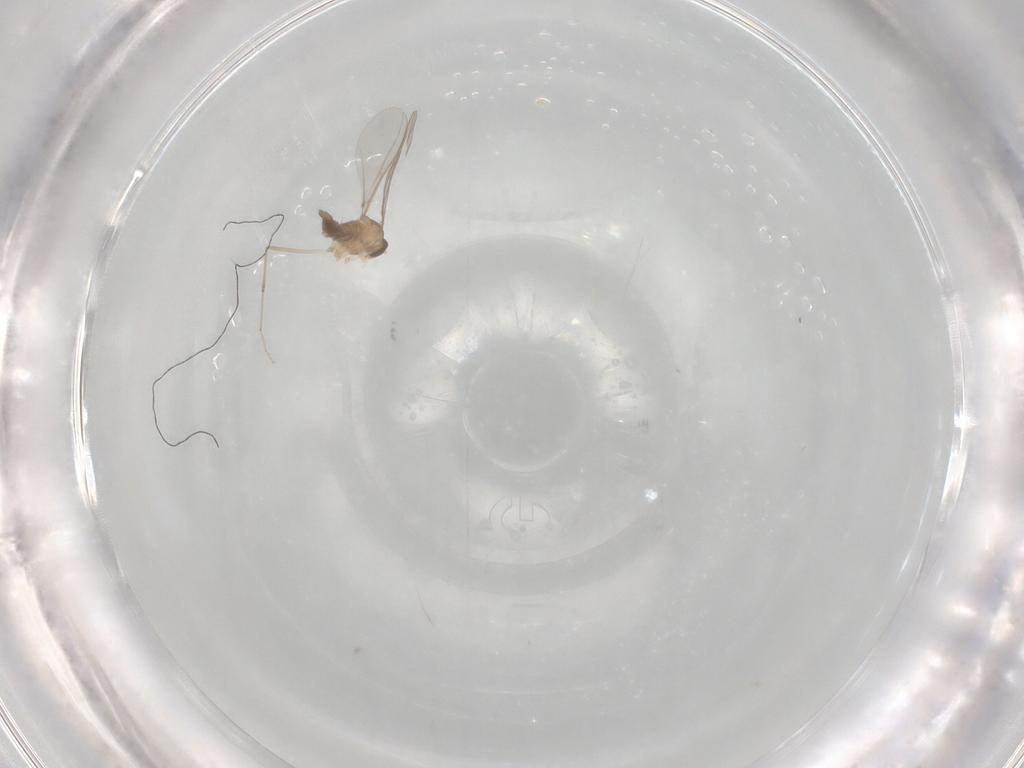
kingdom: Animalia
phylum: Arthropoda
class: Insecta
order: Diptera
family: Cecidomyiidae
